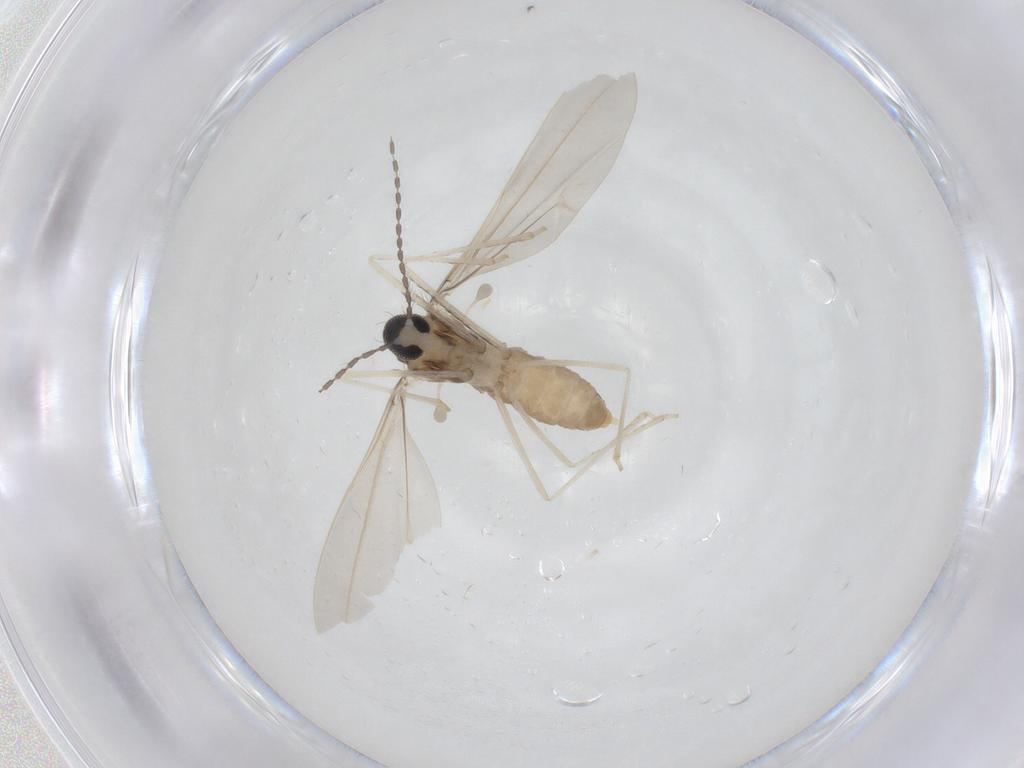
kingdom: Animalia
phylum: Arthropoda
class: Insecta
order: Diptera
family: Cecidomyiidae
